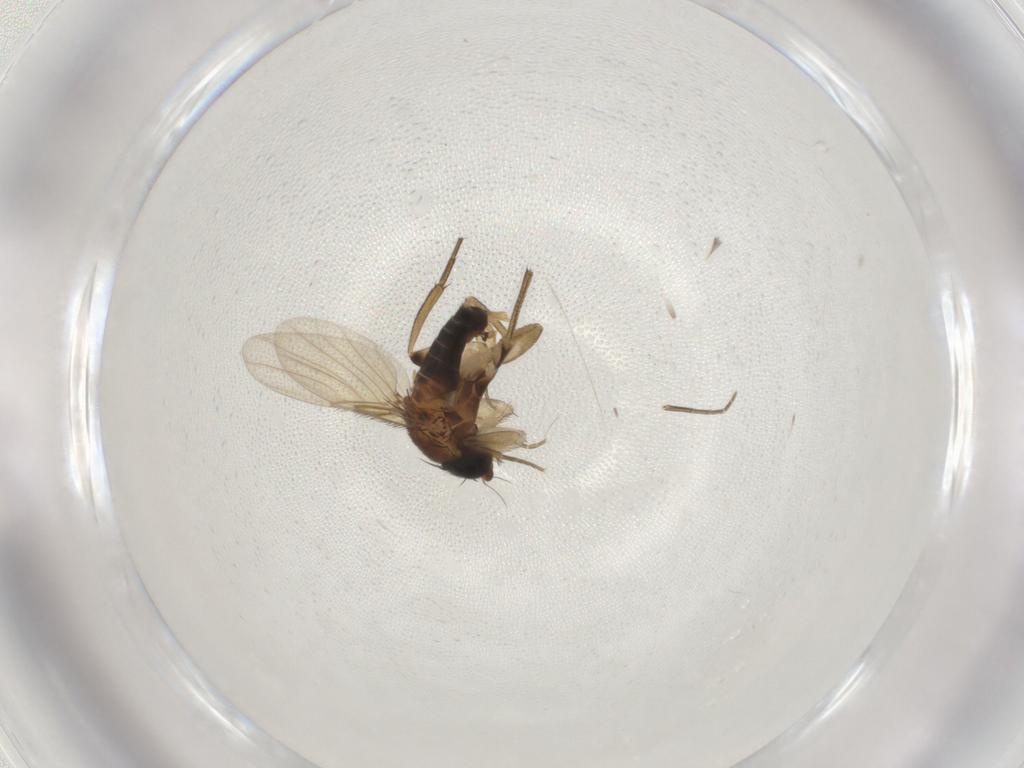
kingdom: Animalia
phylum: Arthropoda
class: Insecta
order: Diptera
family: Phoridae
